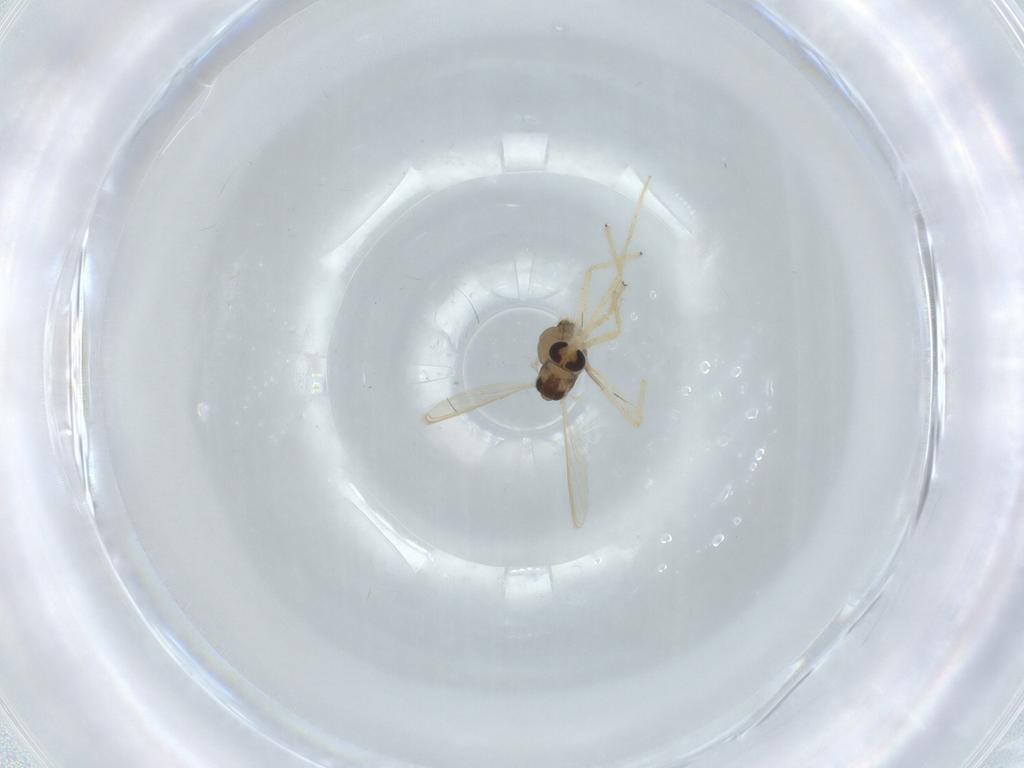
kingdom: Animalia
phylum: Arthropoda
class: Insecta
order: Diptera
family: Chironomidae
